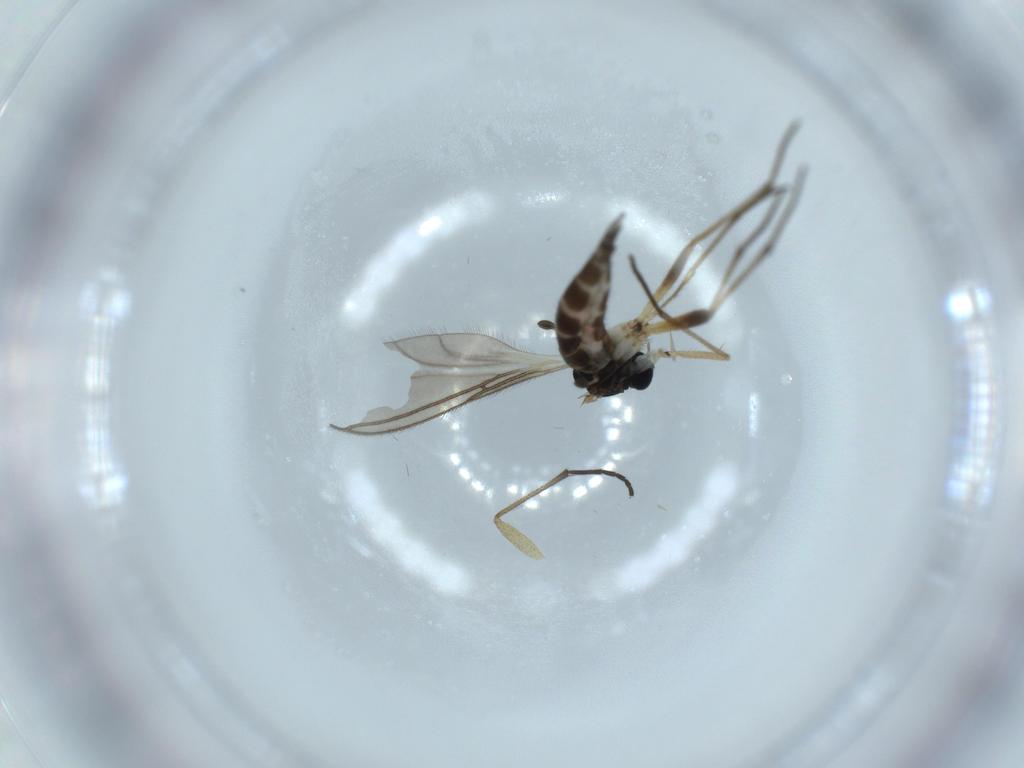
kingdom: Animalia
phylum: Arthropoda
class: Insecta
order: Diptera
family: Sciaridae
